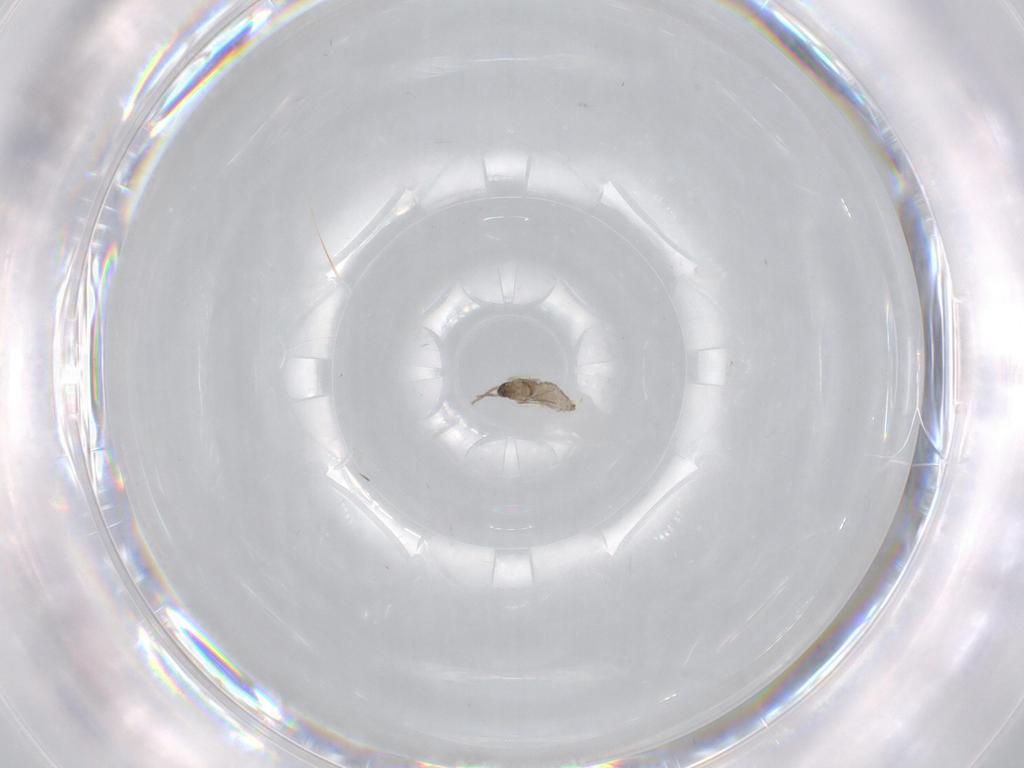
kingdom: Animalia
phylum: Arthropoda
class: Insecta
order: Diptera
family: Cecidomyiidae
